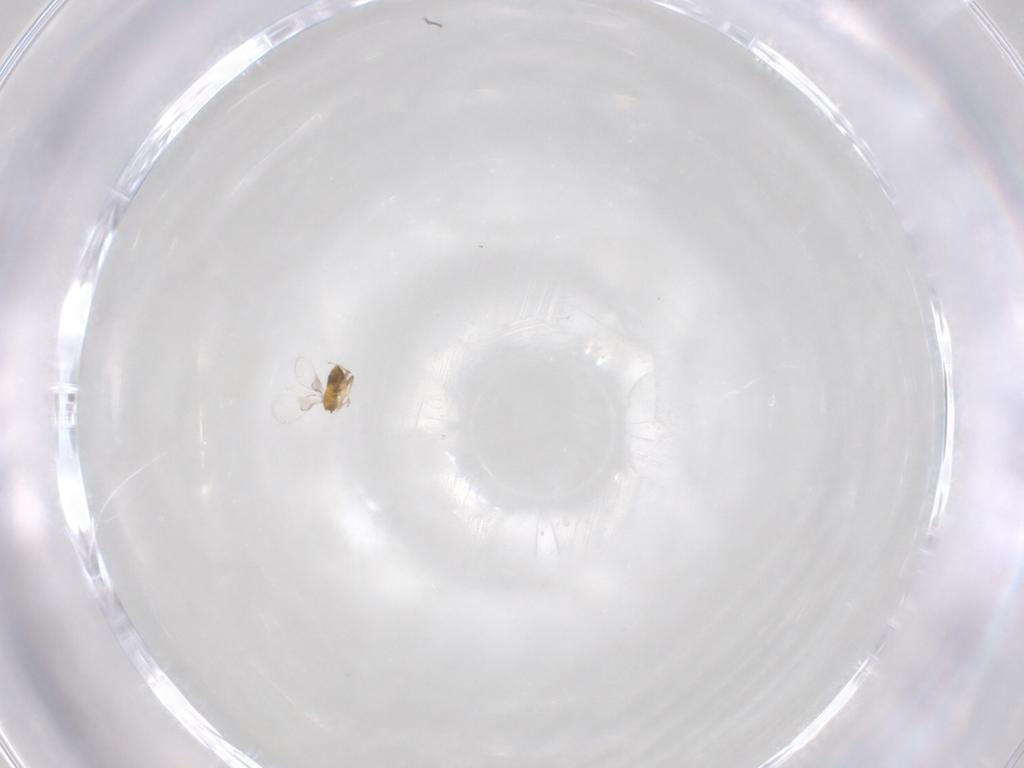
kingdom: Animalia
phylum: Arthropoda
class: Insecta
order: Hymenoptera
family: Trichogrammatidae
